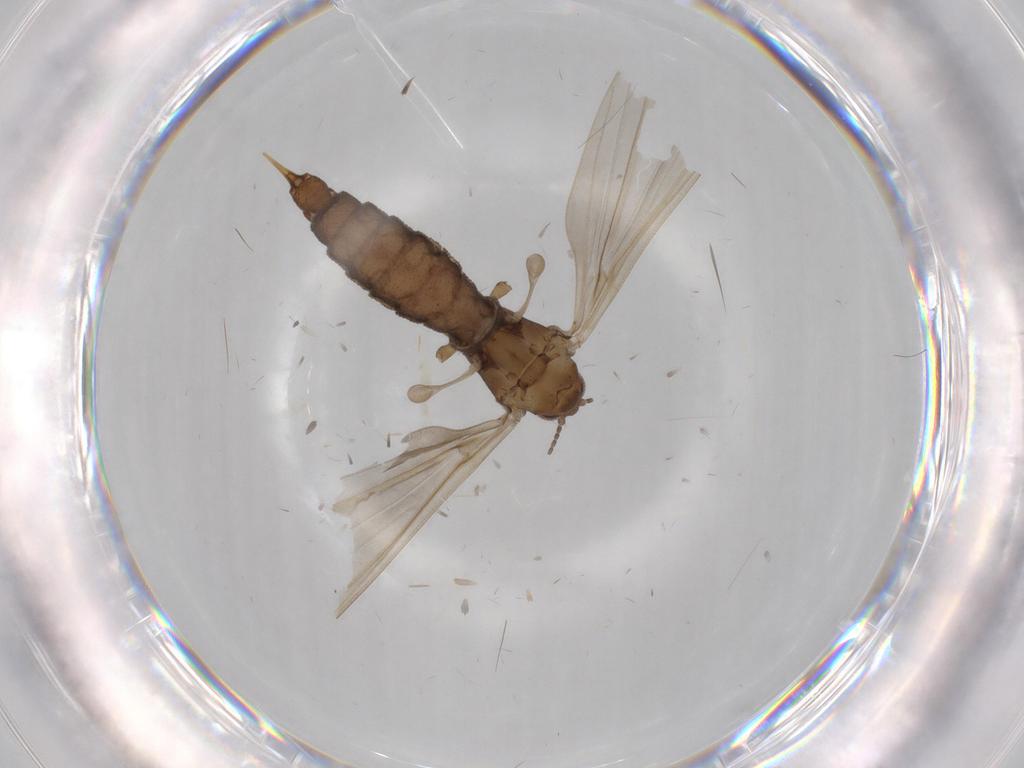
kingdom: Animalia
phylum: Arthropoda
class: Insecta
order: Diptera
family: Limoniidae
